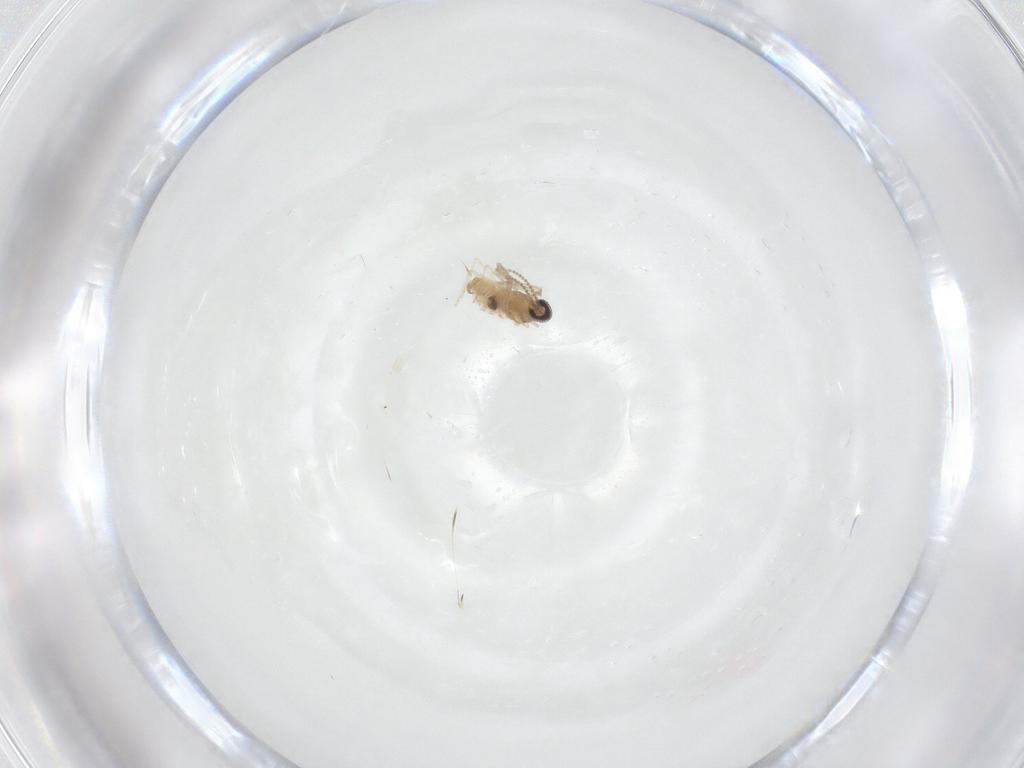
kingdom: Animalia
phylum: Arthropoda
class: Insecta
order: Diptera
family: Cecidomyiidae
